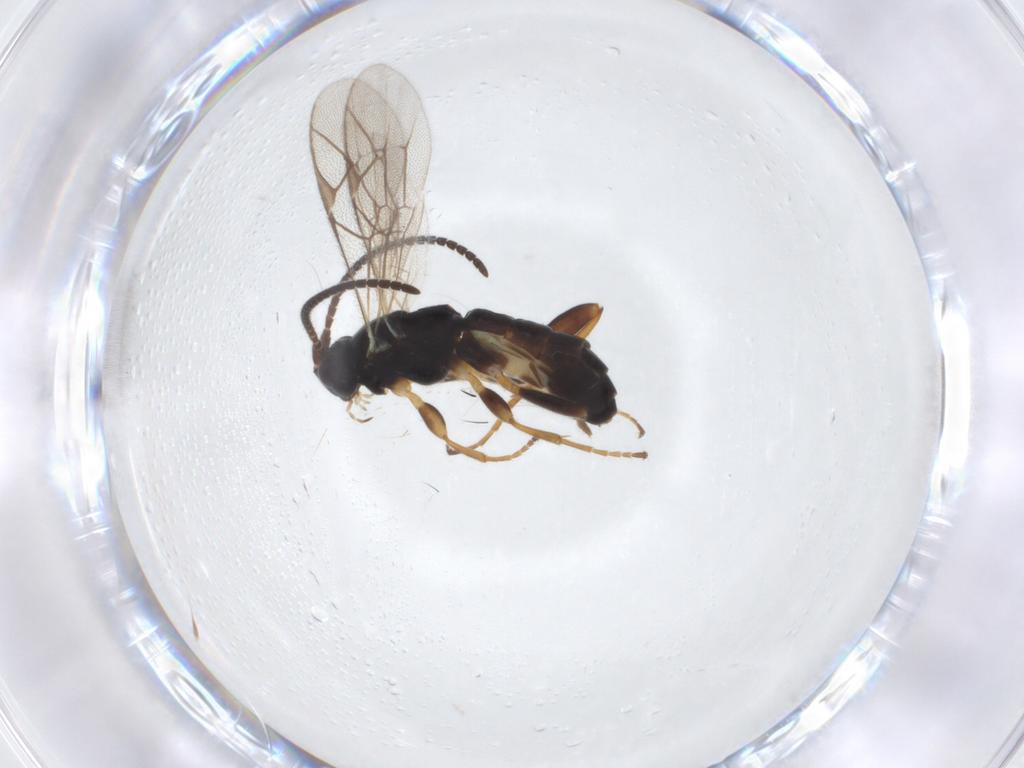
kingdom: Animalia
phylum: Arthropoda
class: Insecta
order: Hymenoptera
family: Ichneumonidae
